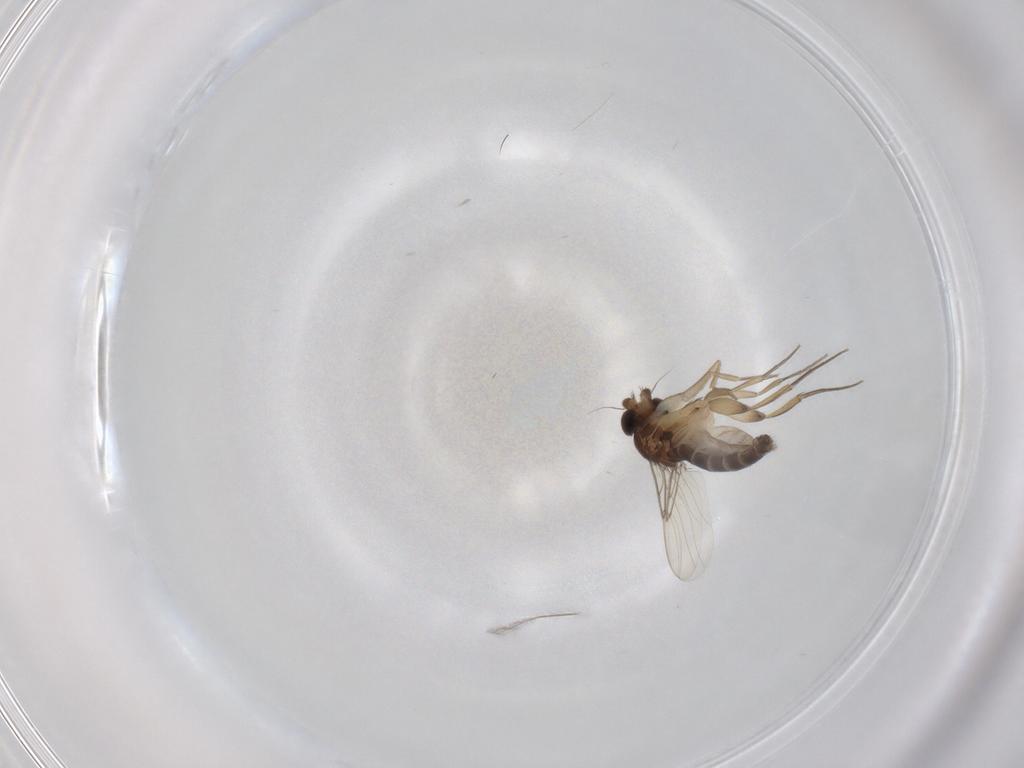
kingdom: Animalia
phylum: Arthropoda
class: Insecta
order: Diptera
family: Phoridae
